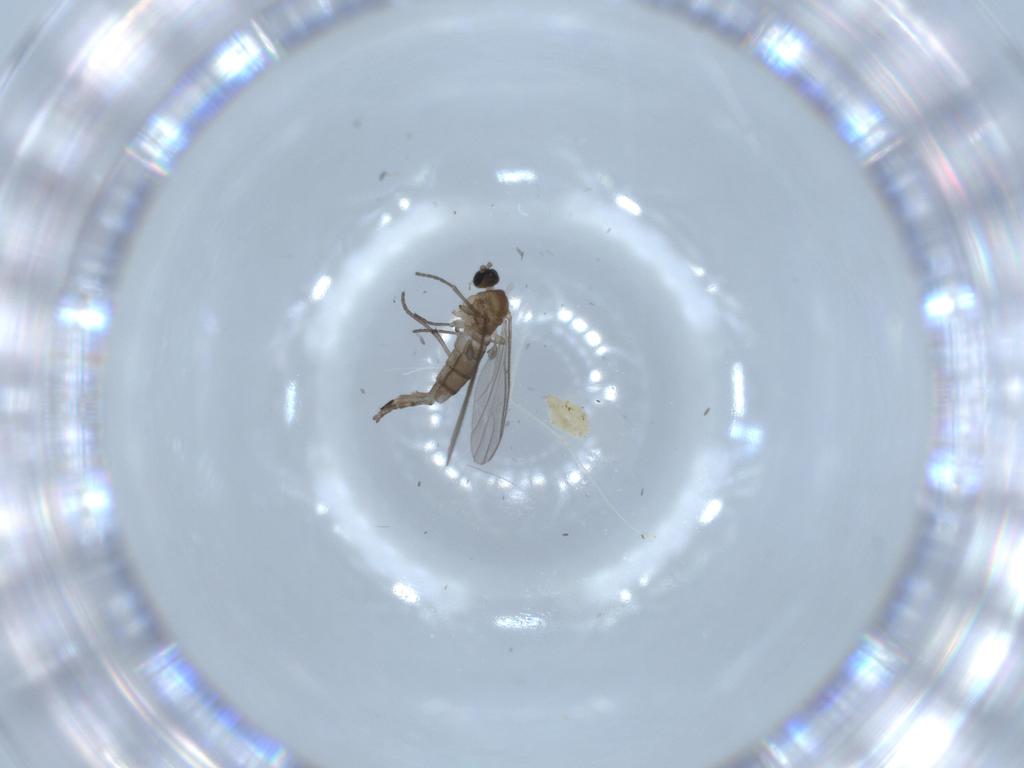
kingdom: Animalia
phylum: Arthropoda
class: Insecta
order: Diptera
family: Sciaridae
